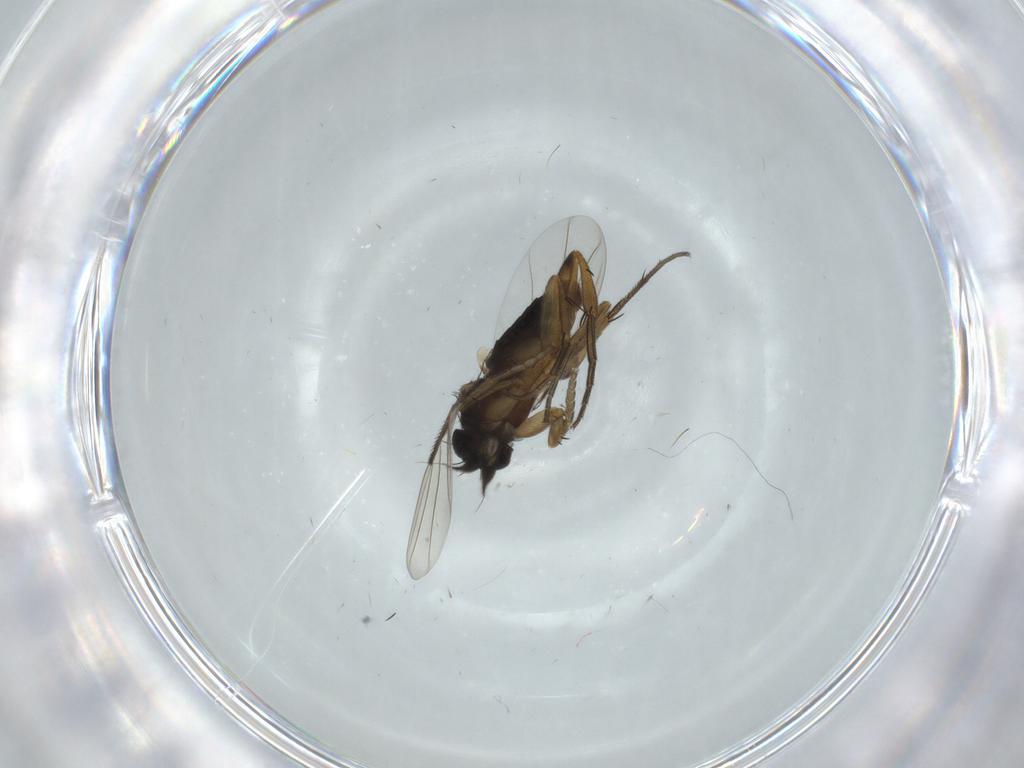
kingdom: Animalia
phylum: Arthropoda
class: Insecta
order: Diptera
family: Phoridae
